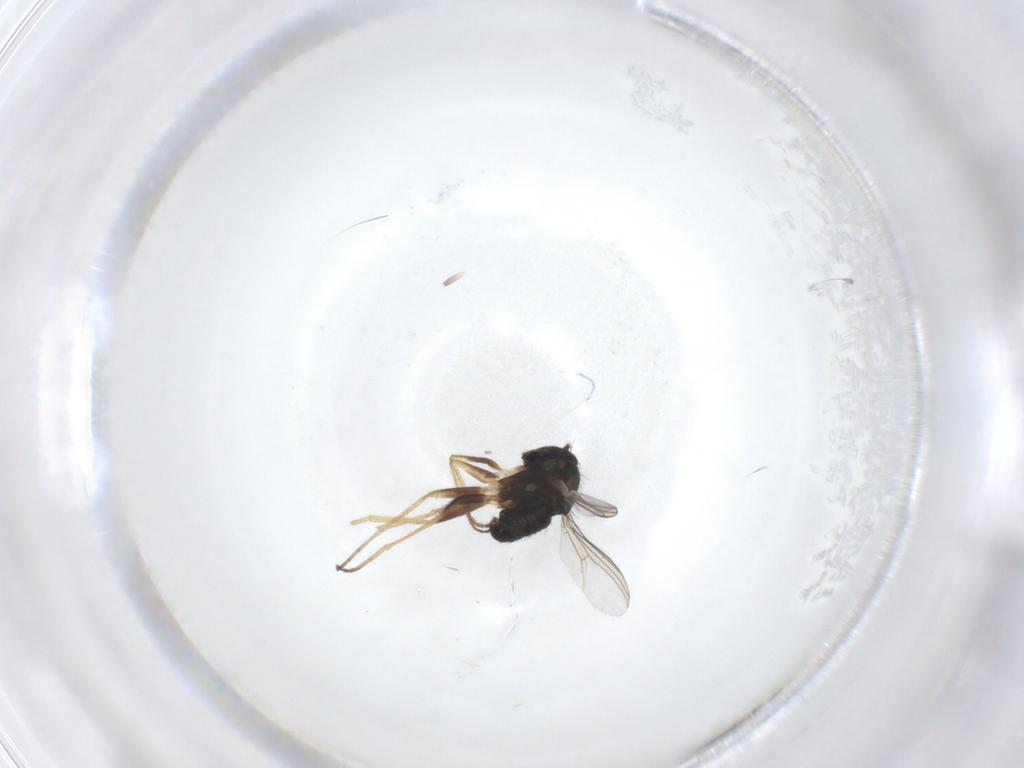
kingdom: Animalia
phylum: Arthropoda
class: Insecta
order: Diptera
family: Dolichopodidae
